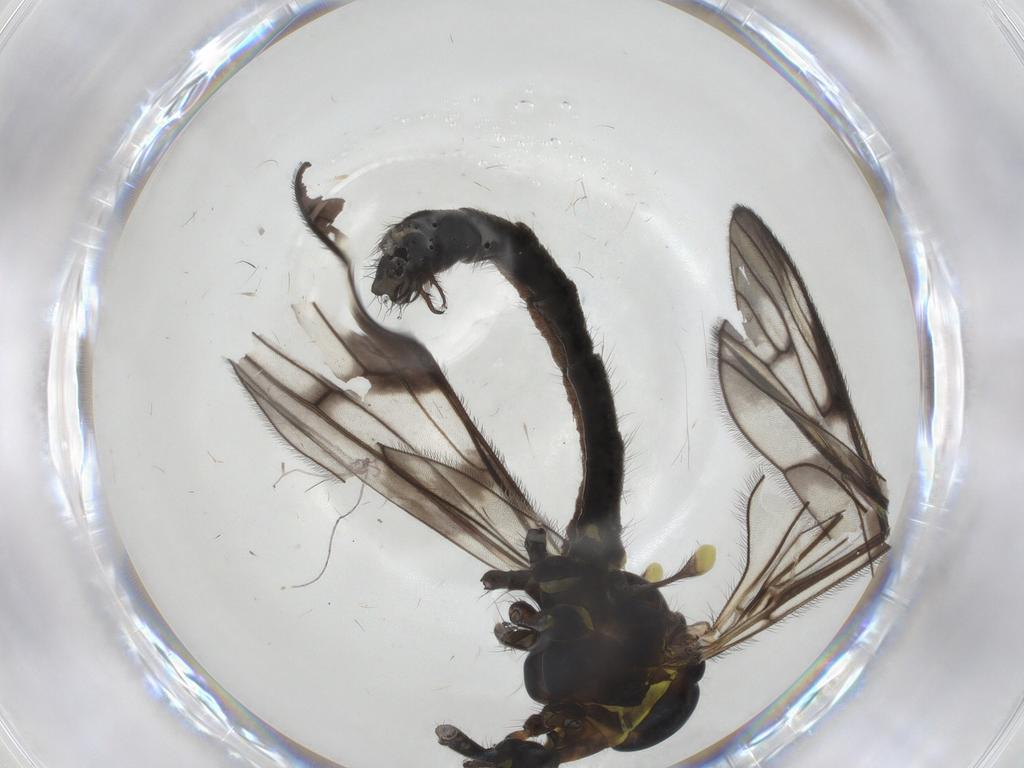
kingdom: Animalia
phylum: Arthropoda
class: Insecta
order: Diptera
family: Limoniidae
